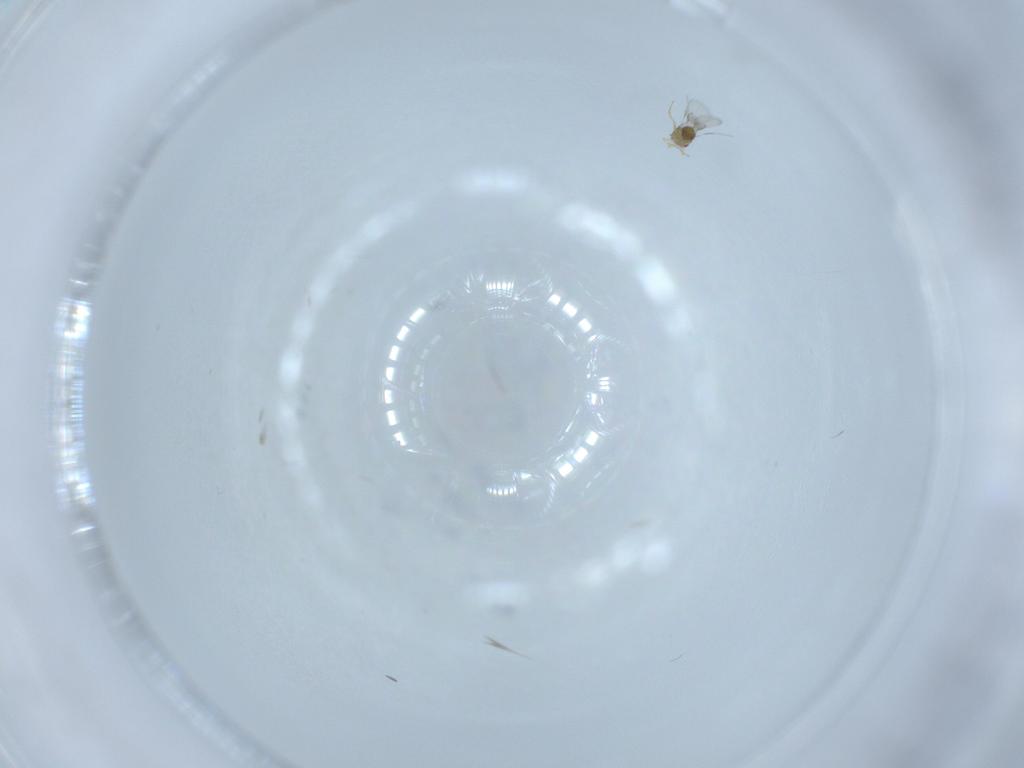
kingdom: Animalia
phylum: Arthropoda
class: Insecta
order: Hymenoptera
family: Trichogrammatidae
